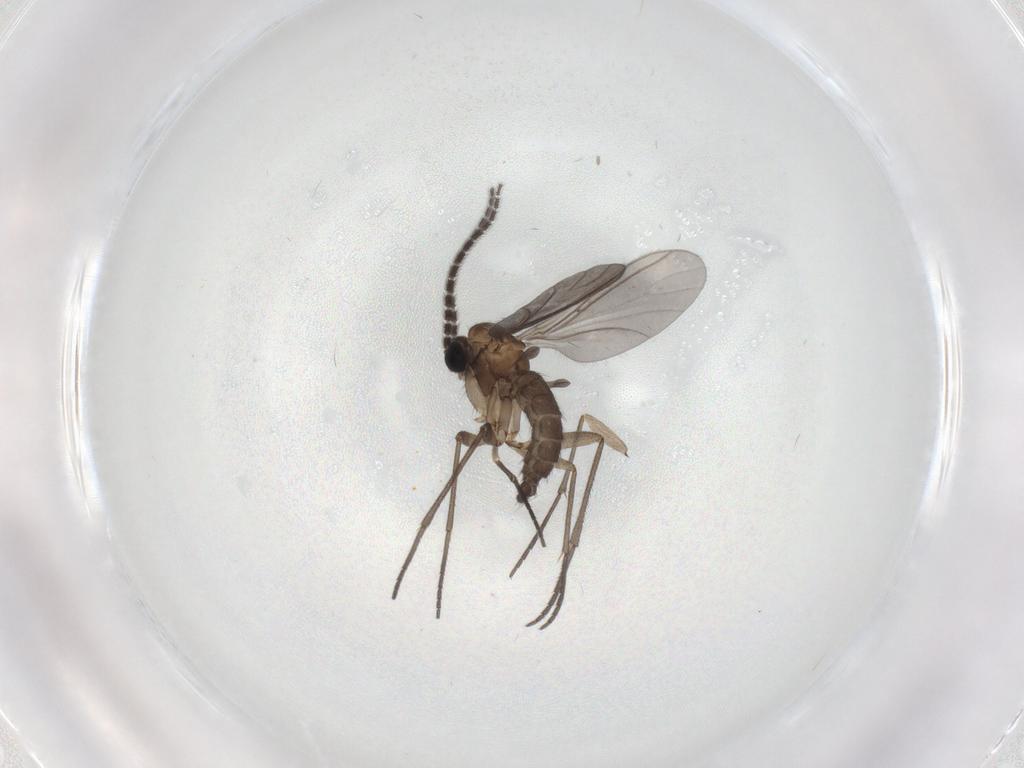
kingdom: Animalia
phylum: Arthropoda
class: Insecta
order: Diptera
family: Sciaridae
